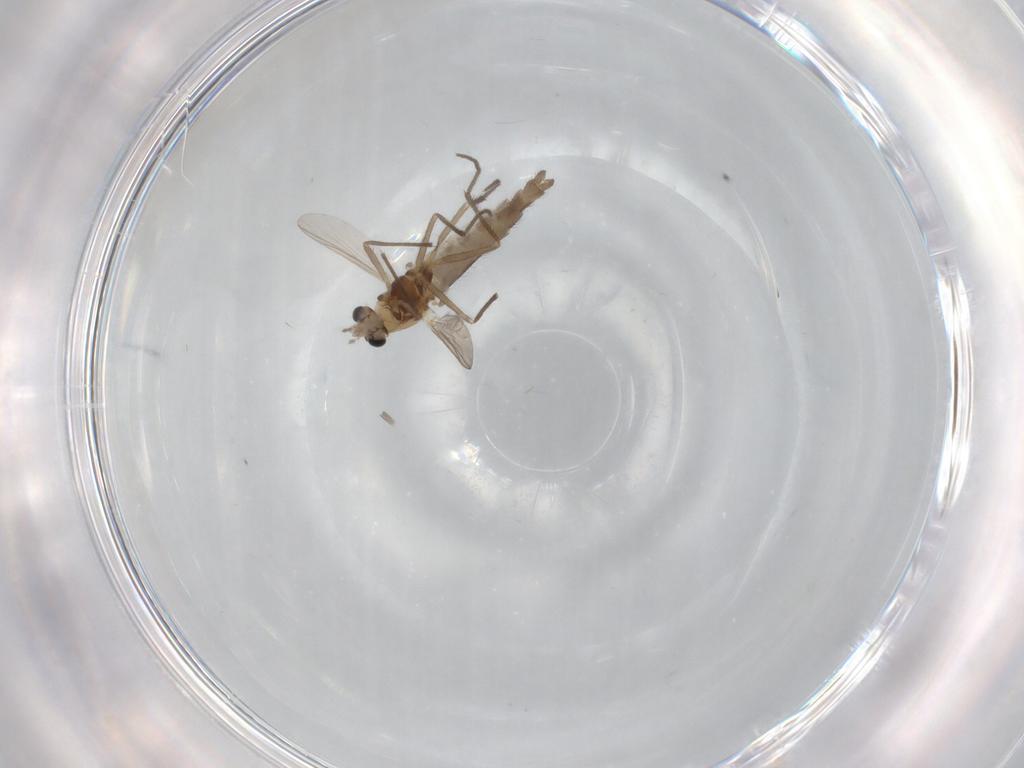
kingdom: Animalia
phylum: Arthropoda
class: Insecta
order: Diptera
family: Chironomidae
